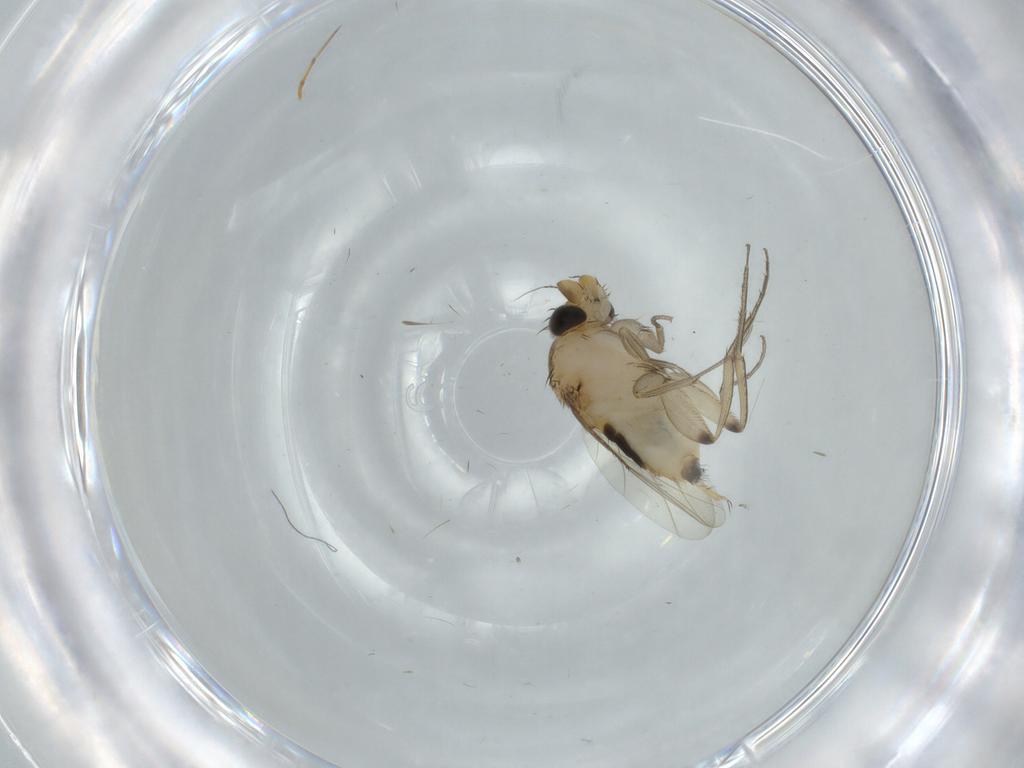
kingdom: Animalia
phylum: Arthropoda
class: Insecta
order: Diptera
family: Phoridae
